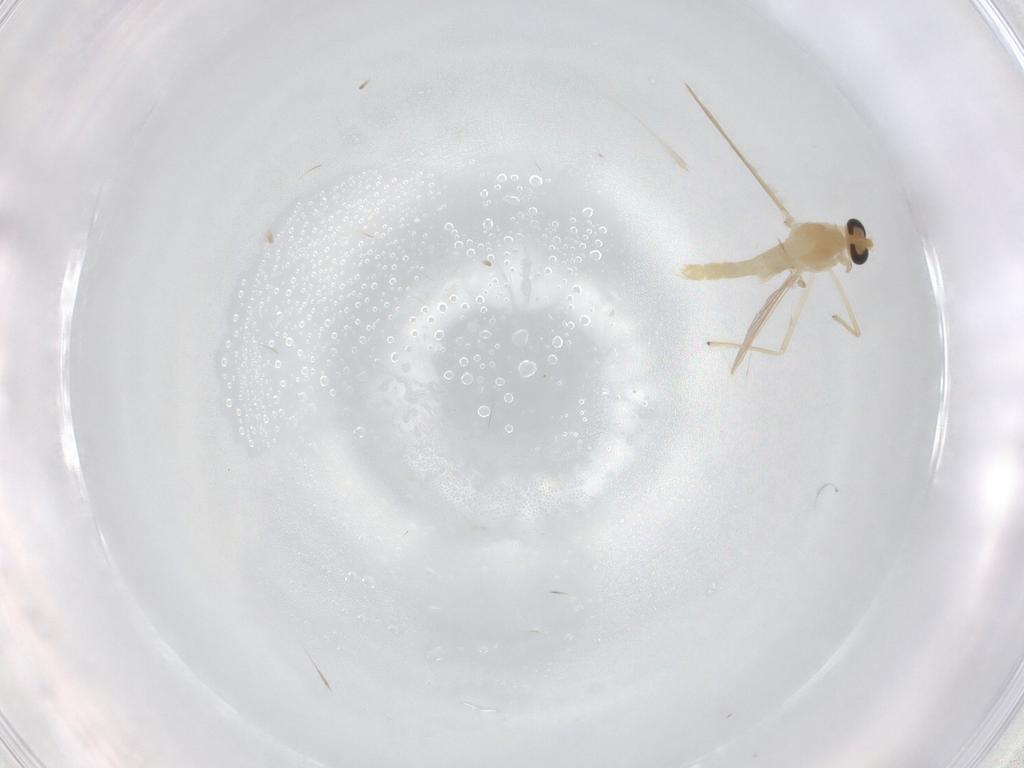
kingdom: Animalia
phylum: Arthropoda
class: Insecta
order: Diptera
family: Chironomidae
